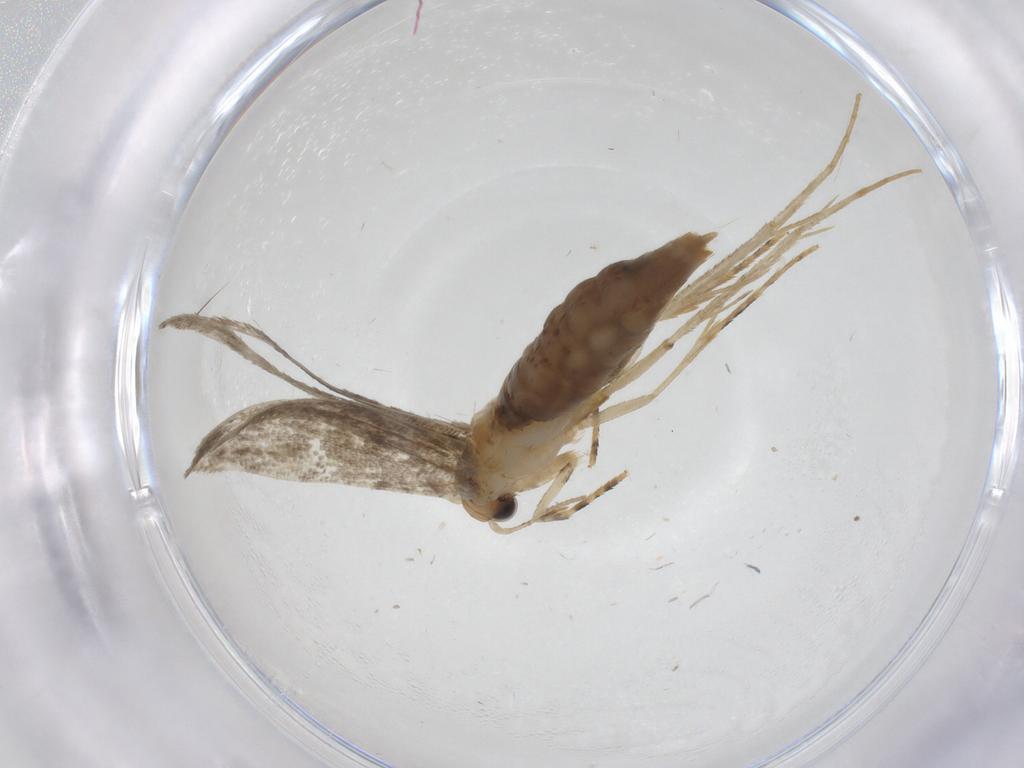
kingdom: Animalia
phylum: Arthropoda
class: Insecta
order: Lepidoptera
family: Tineidae
